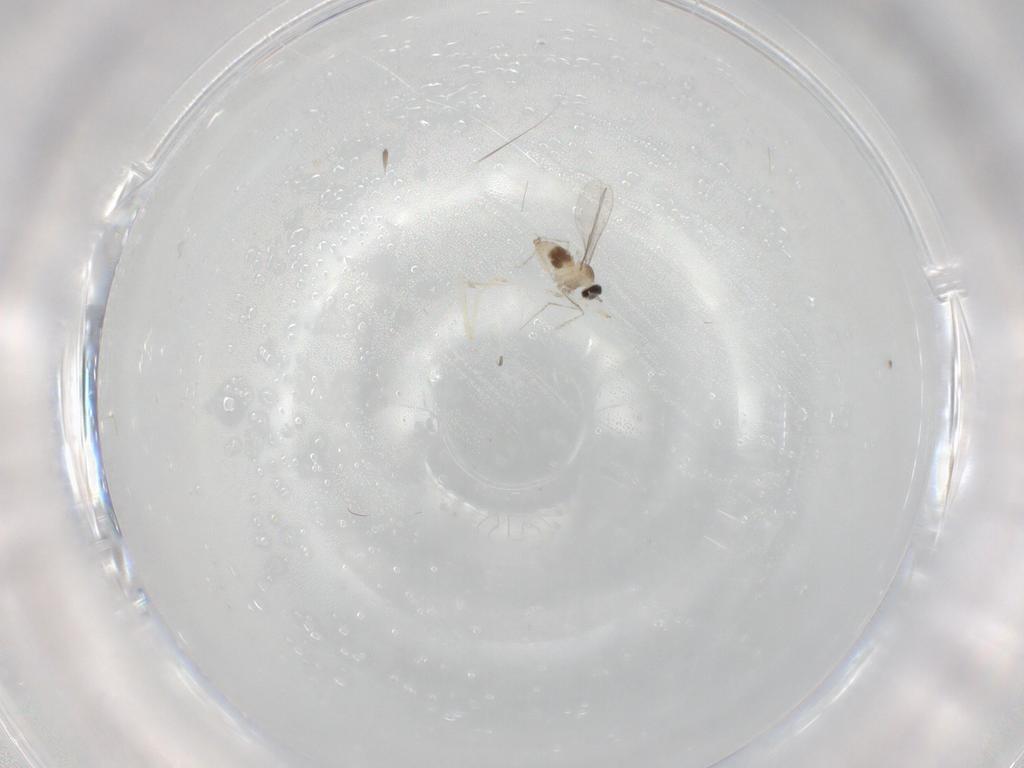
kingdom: Animalia
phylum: Arthropoda
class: Insecta
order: Diptera
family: Cecidomyiidae
